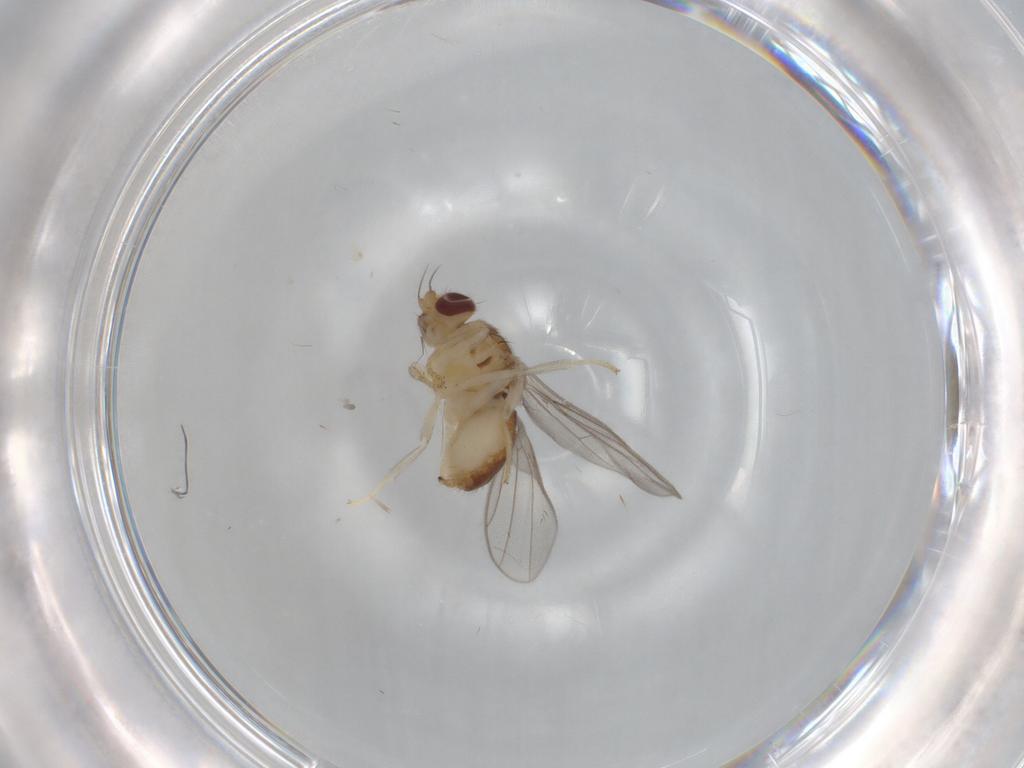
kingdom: Animalia
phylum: Arthropoda
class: Insecta
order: Diptera
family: Chloropidae
